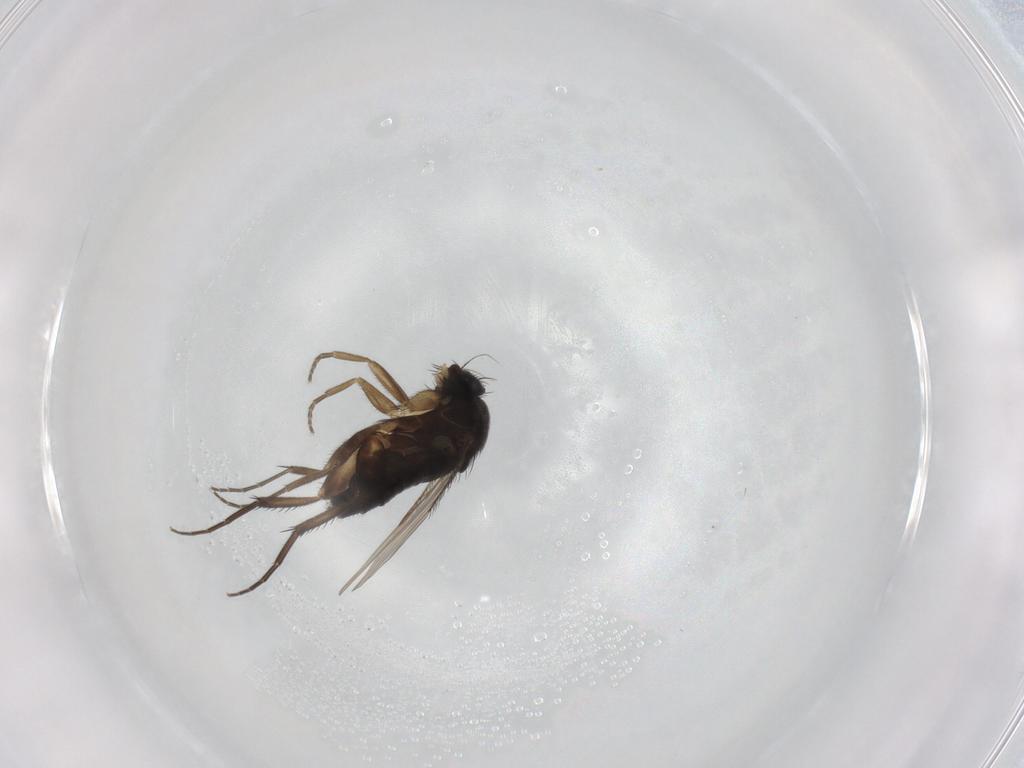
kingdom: Animalia
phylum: Arthropoda
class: Insecta
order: Diptera
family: Phoridae
